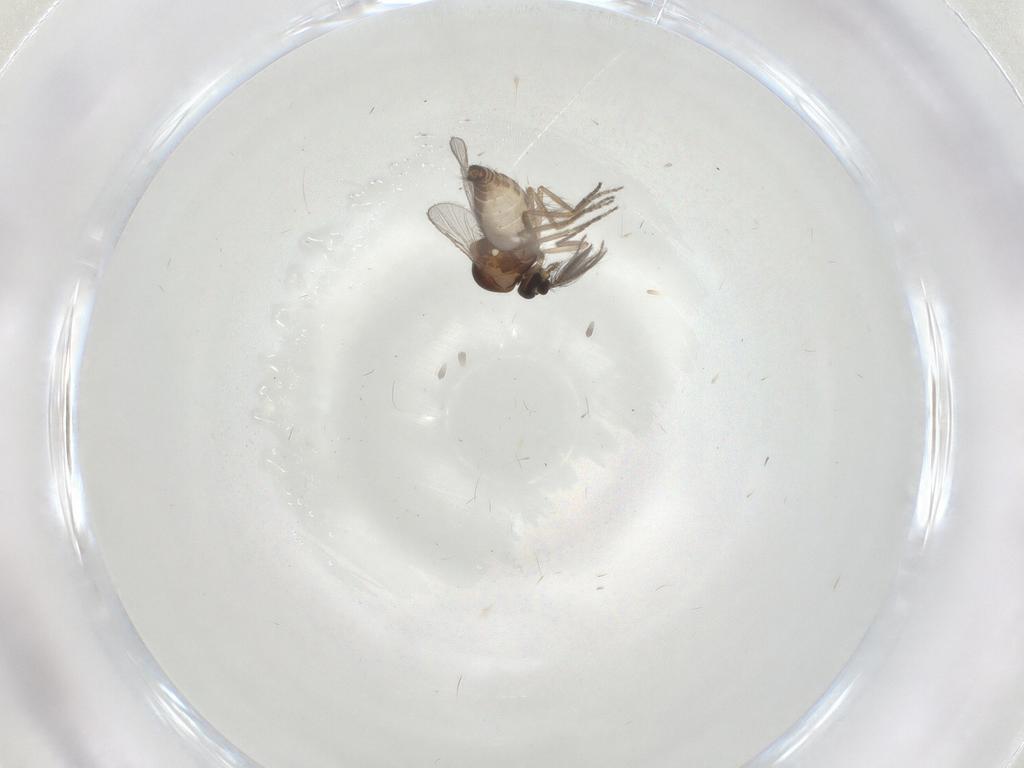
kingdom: Animalia
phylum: Arthropoda
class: Insecta
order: Diptera
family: Ceratopogonidae
